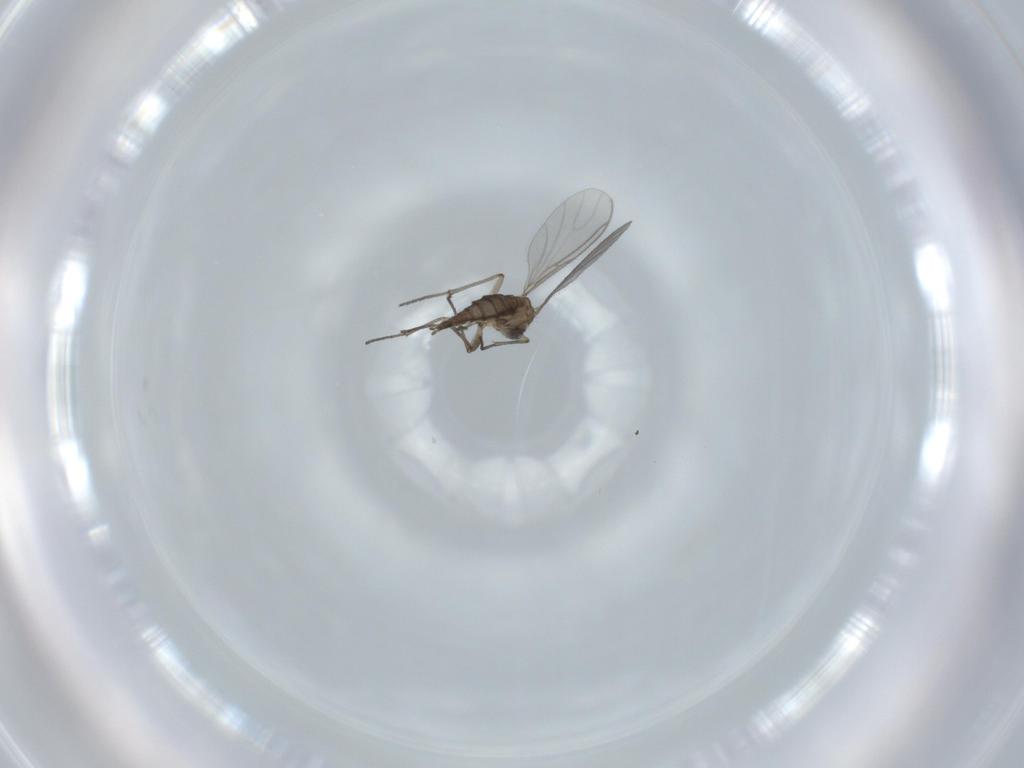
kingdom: Animalia
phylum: Arthropoda
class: Insecta
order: Diptera
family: Sciaridae
